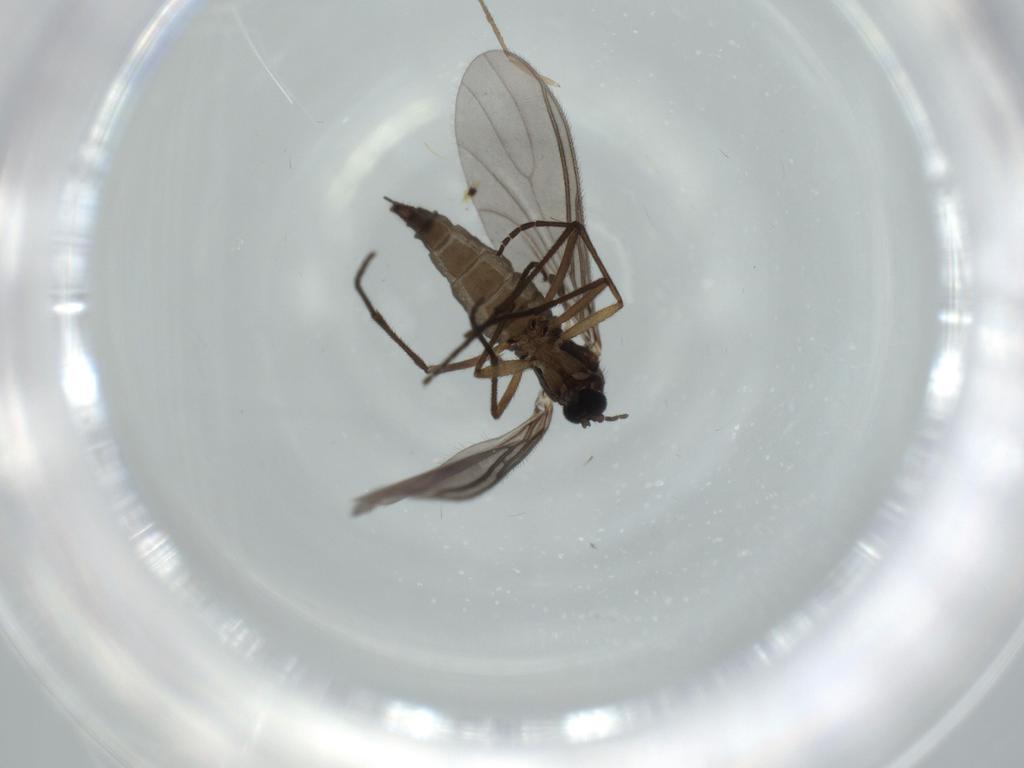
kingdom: Animalia
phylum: Arthropoda
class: Insecta
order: Diptera
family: Sciaridae
